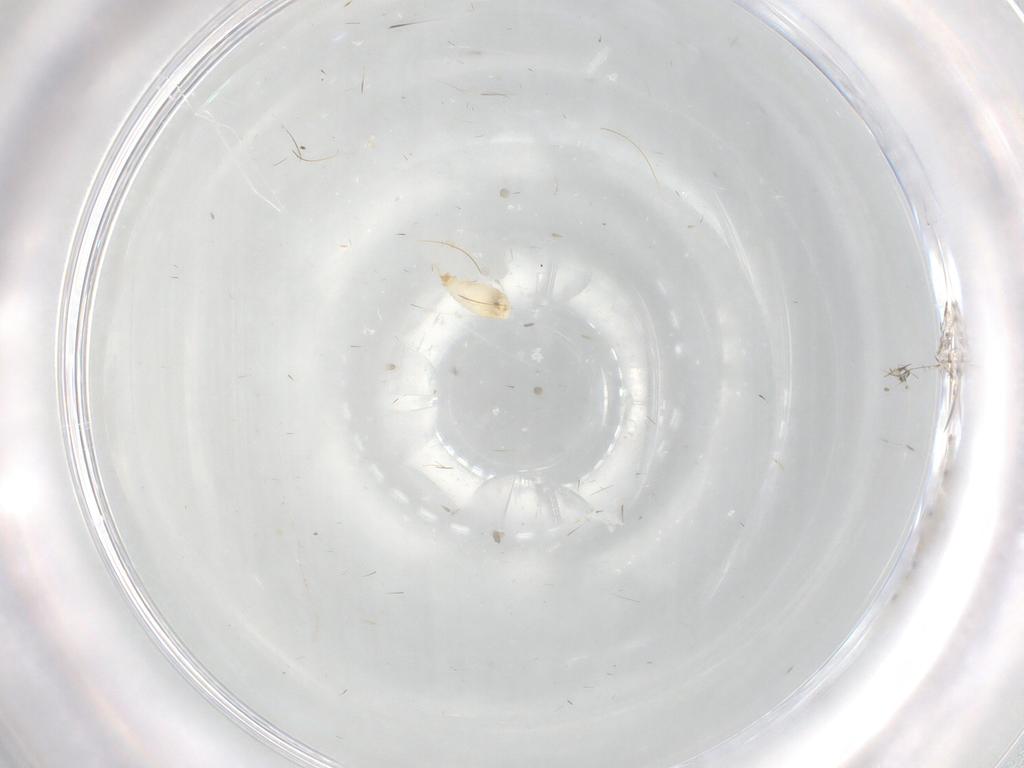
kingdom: Animalia
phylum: Arthropoda
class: Insecta
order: Diptera
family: Cecidomyiidae
